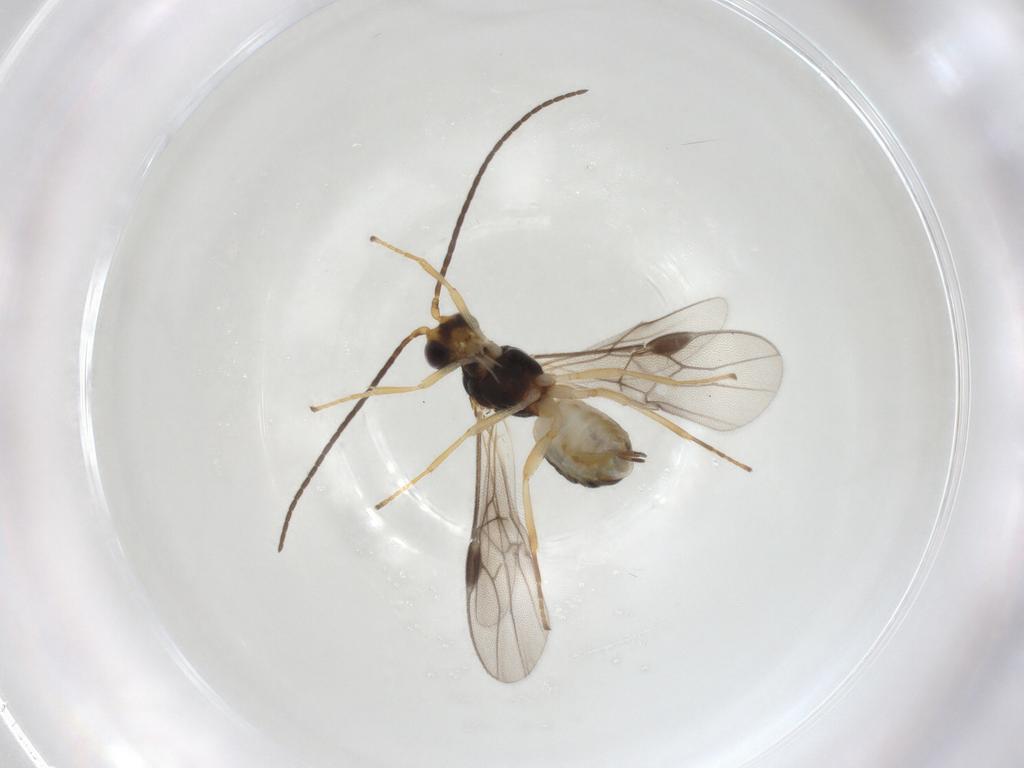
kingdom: Animalia
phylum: Arthropoda
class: Insecta
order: Hymenoptera
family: Braconidae
